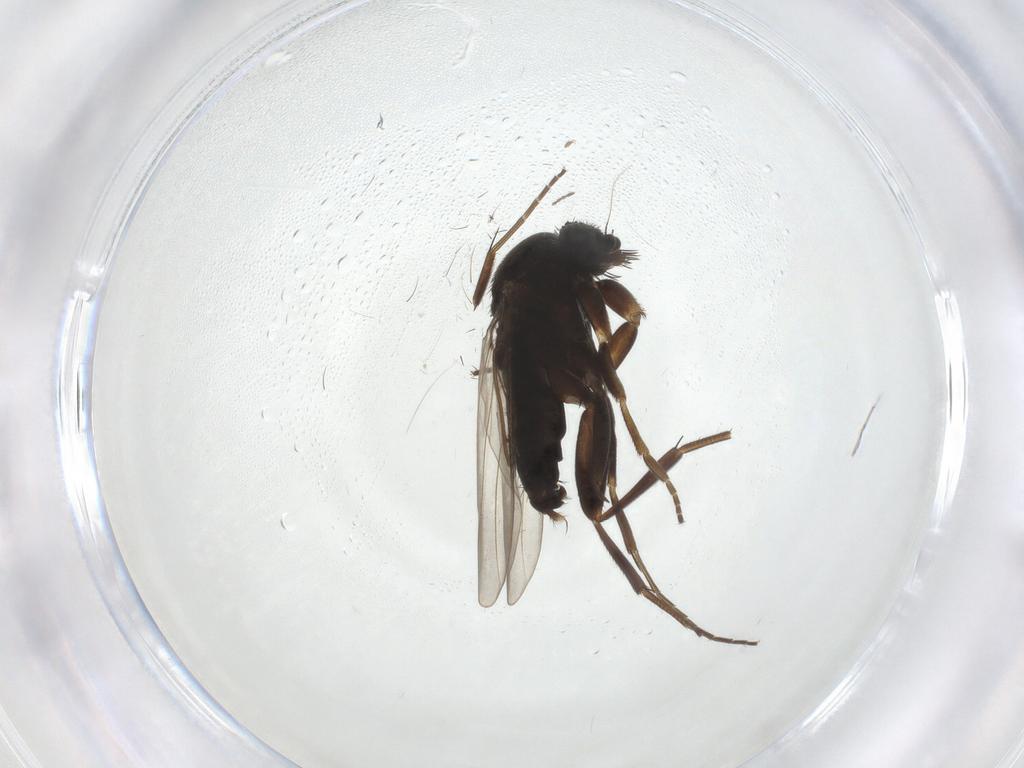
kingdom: Animalia
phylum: Arthropoda
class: Insecta
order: Diptera
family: Phoridae
